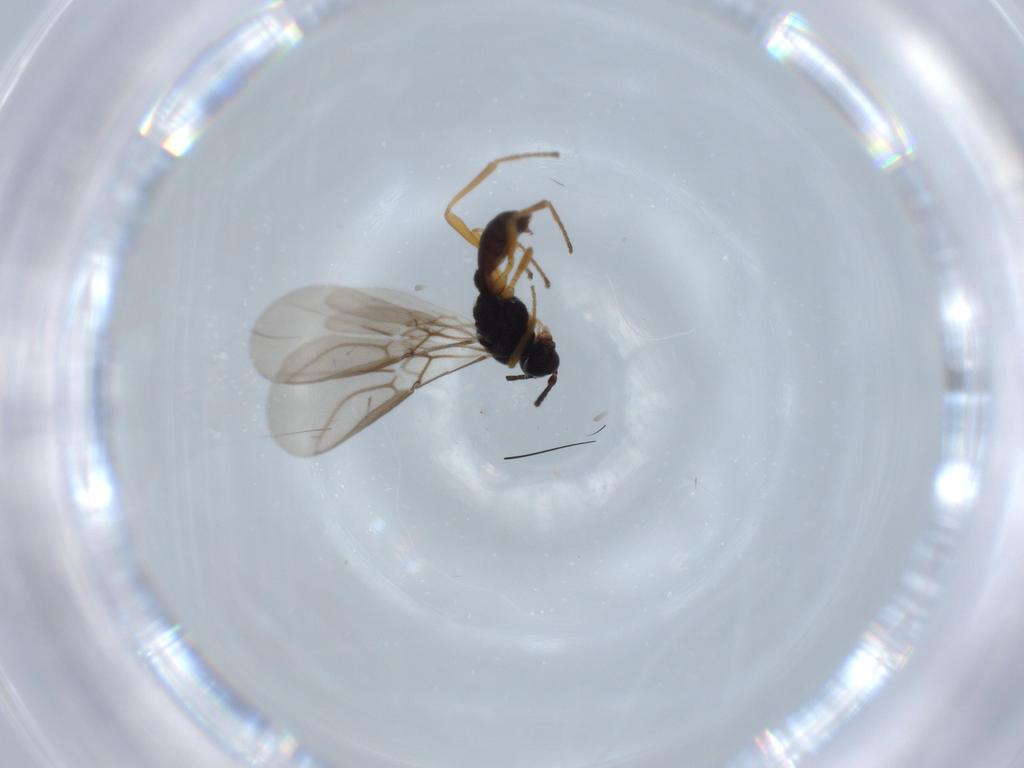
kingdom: Animalia
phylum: Arthropoda
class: Insecta
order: Hymenoptera
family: Braconidae
